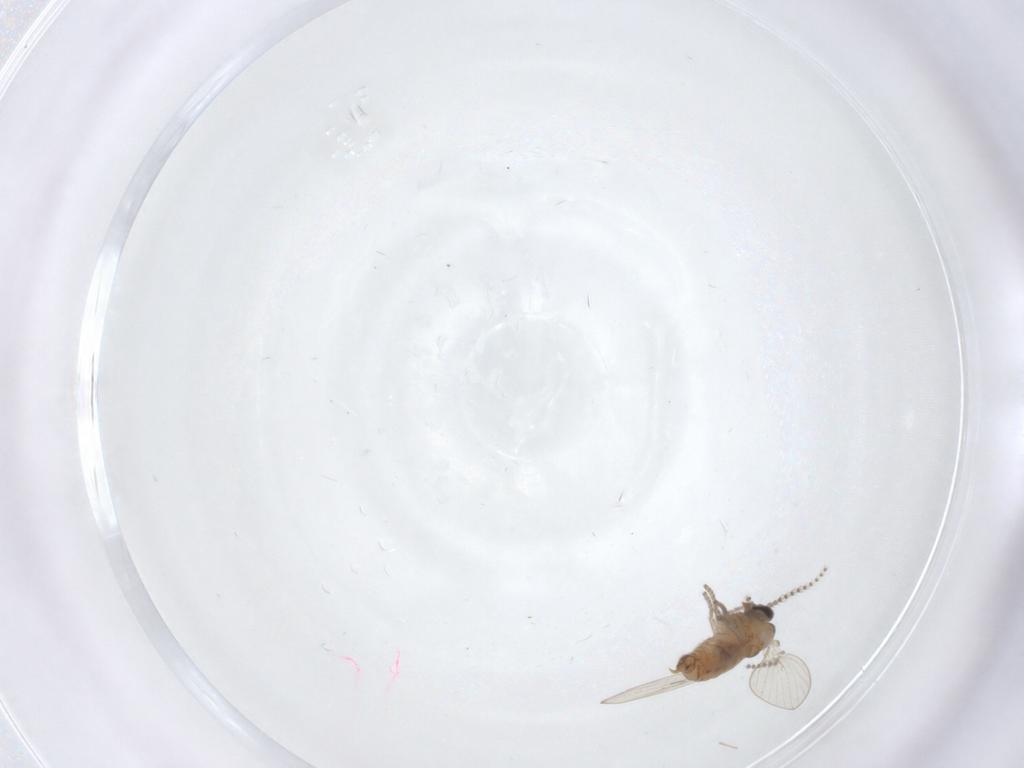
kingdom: Animalia
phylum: Arthropoda
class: Insecta
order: Diptera
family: Psychodidae
